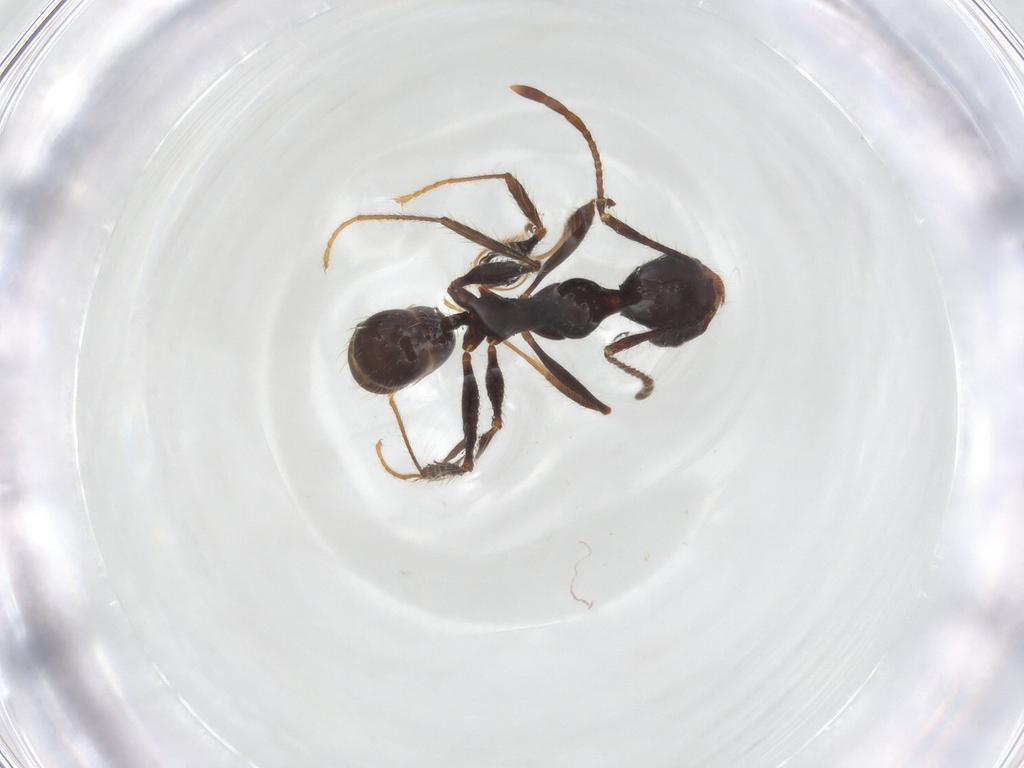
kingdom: Animalia
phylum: Arthropoda
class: Insecta
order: Hymenoptera
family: Formicidae
